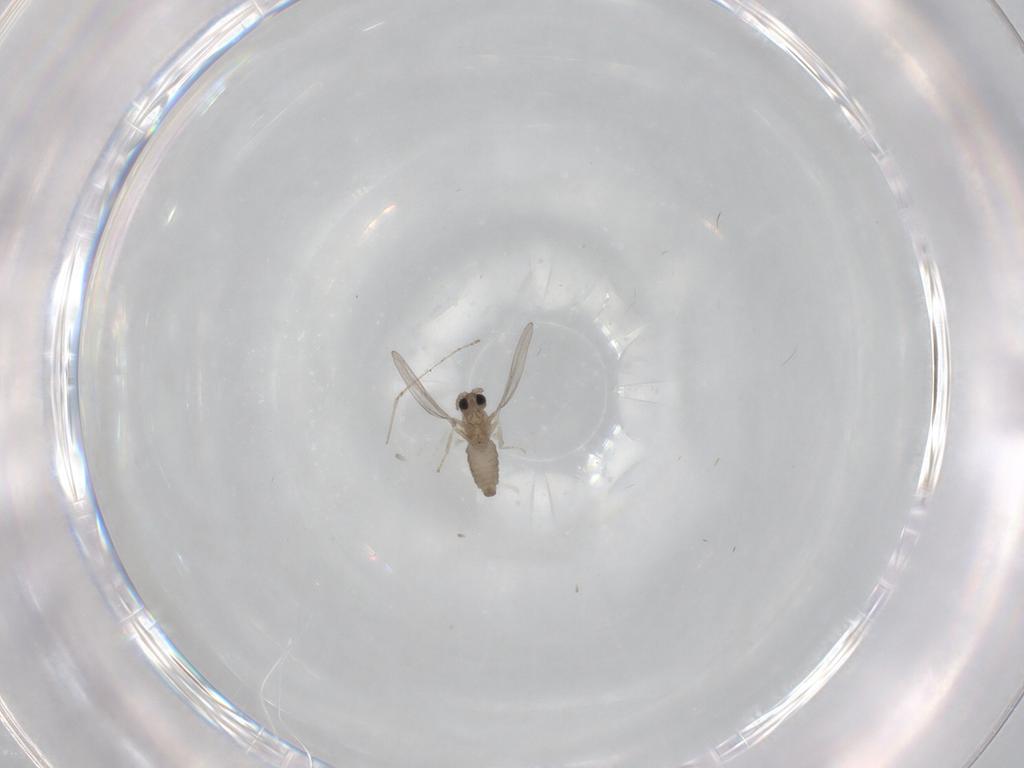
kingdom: Animalia
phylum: Arthropoda
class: Insecta
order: Diptera
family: Cecidomyiidae
